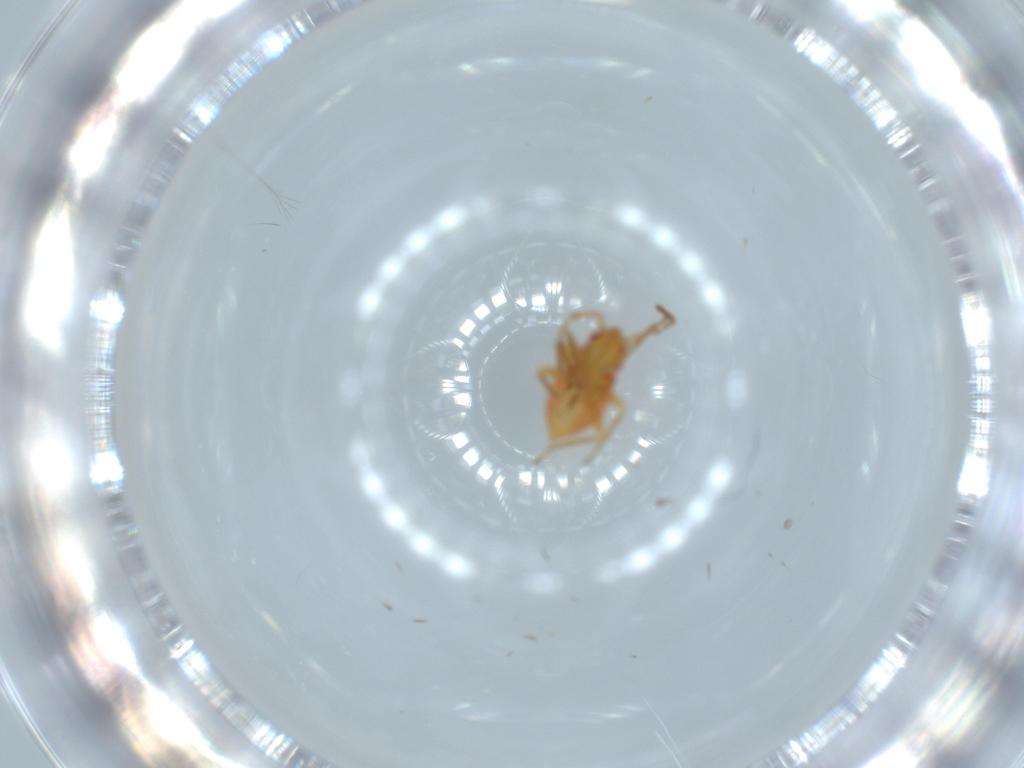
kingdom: Animalia
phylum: Arthropoda
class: Insecta
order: Hemiptera
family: Miridae
